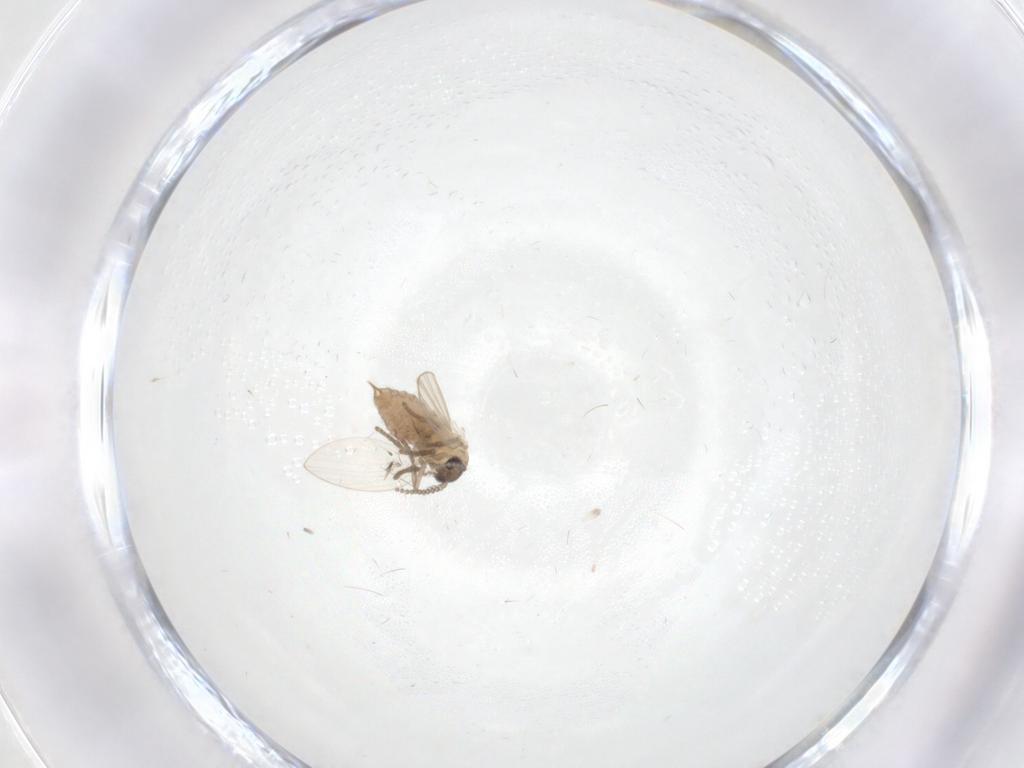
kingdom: Animalia
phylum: Arthropoda
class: Insecta
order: Diptera
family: Psychodidae
